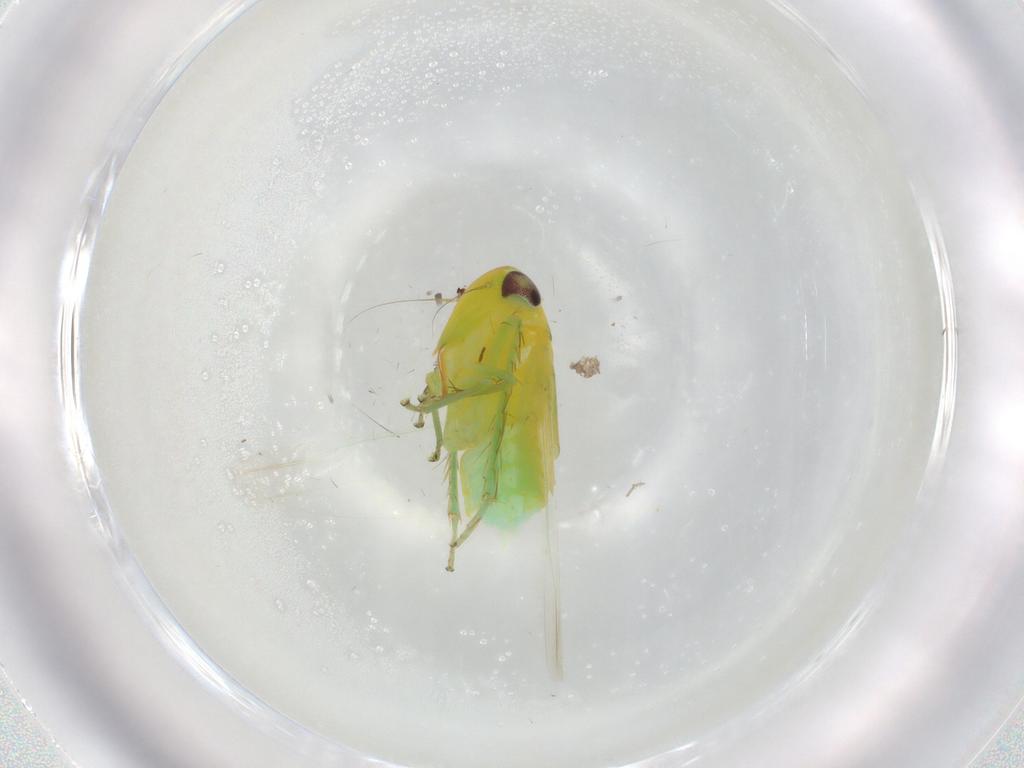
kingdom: Animalia
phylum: Arthropoda
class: Insecta
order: Hemiptera
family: Cicadellidae
